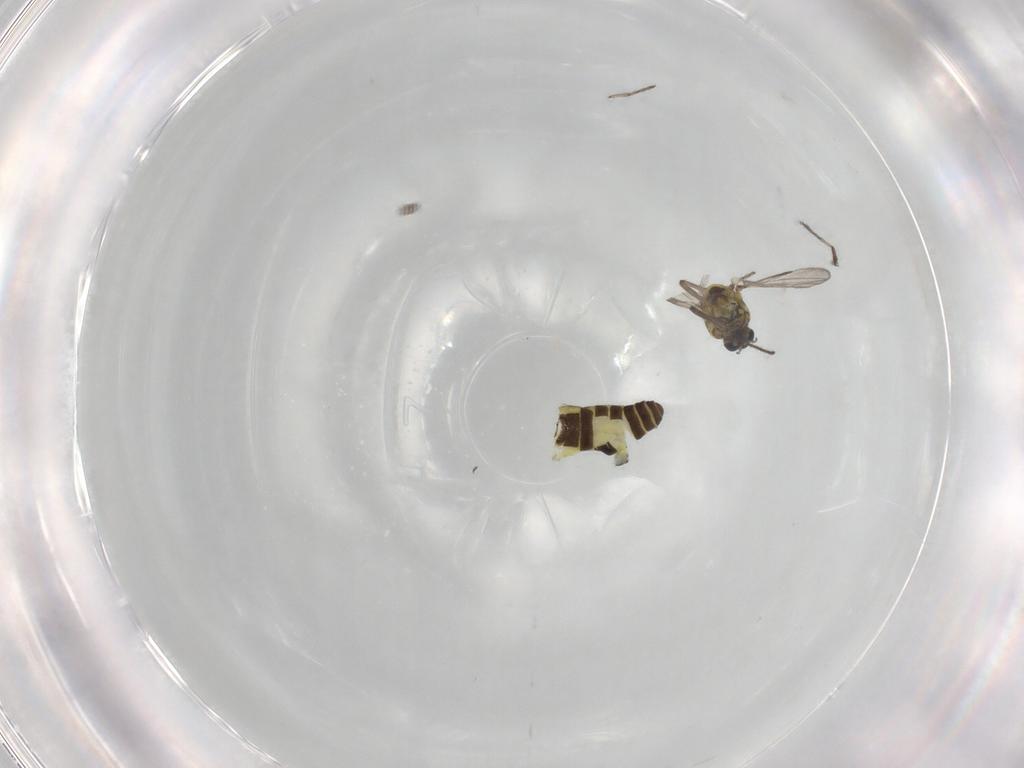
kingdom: Animalia
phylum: Arthropoda
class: Insecta
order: Diptera
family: Ceratopogonidae
